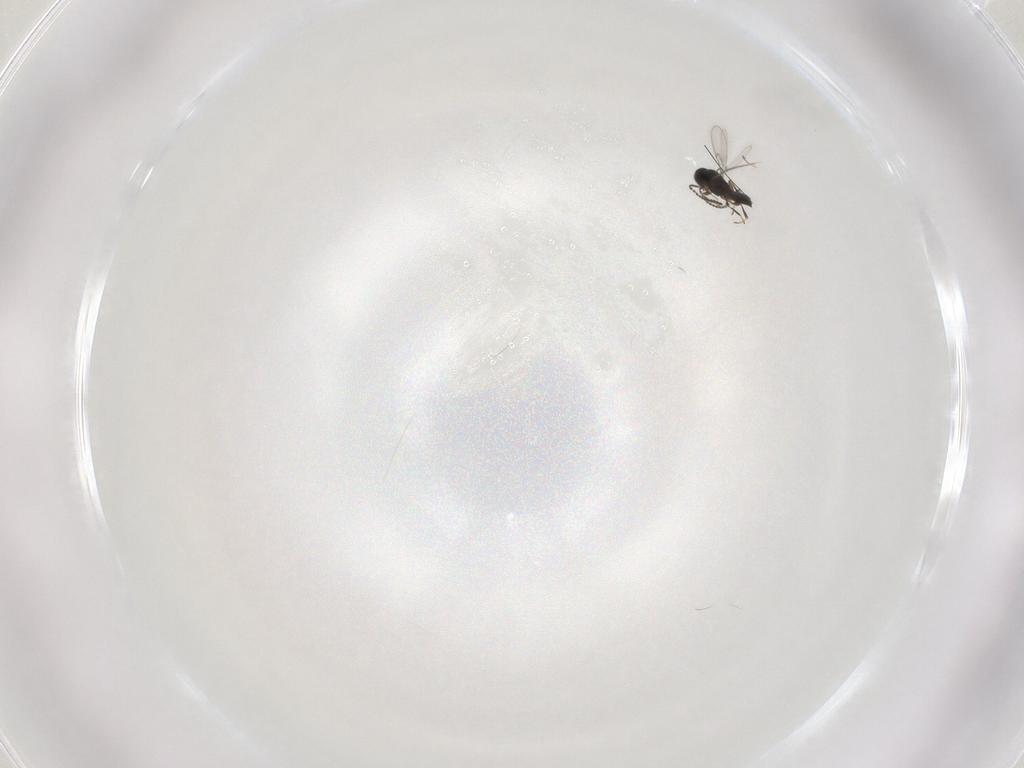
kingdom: Animalia
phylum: Arthropoda
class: Insecta
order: Hymenoptera
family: Scelionidae
